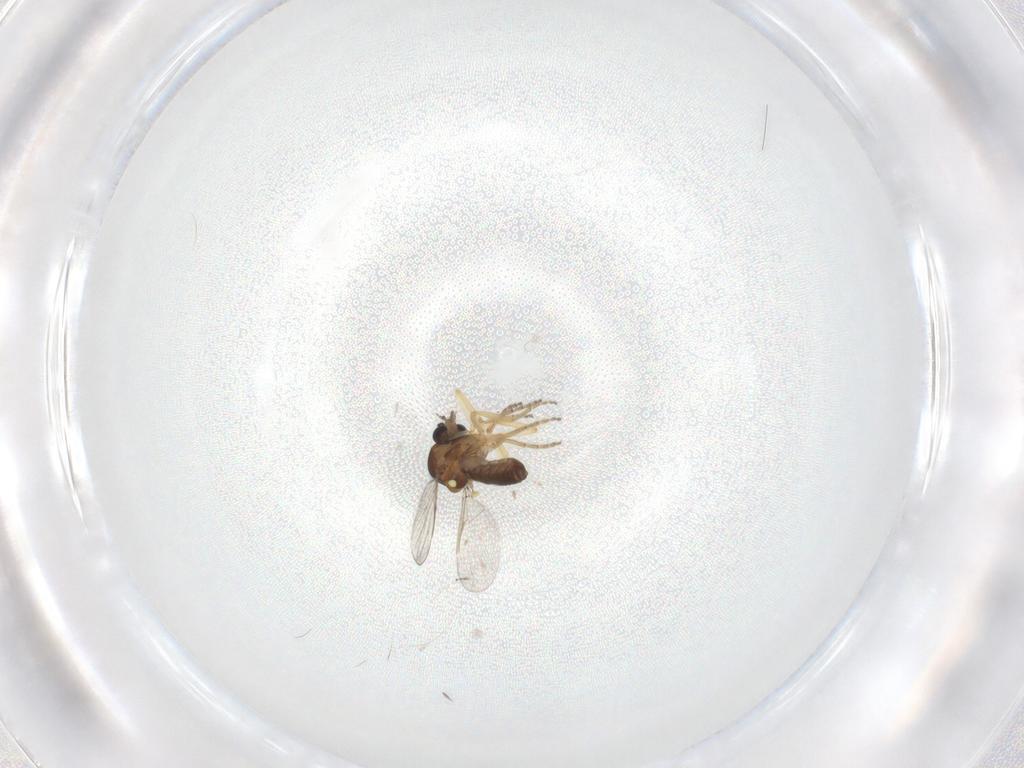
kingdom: Animalia
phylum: Arthropoda
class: Insecta
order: Diptera
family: Ceratopogonidae
